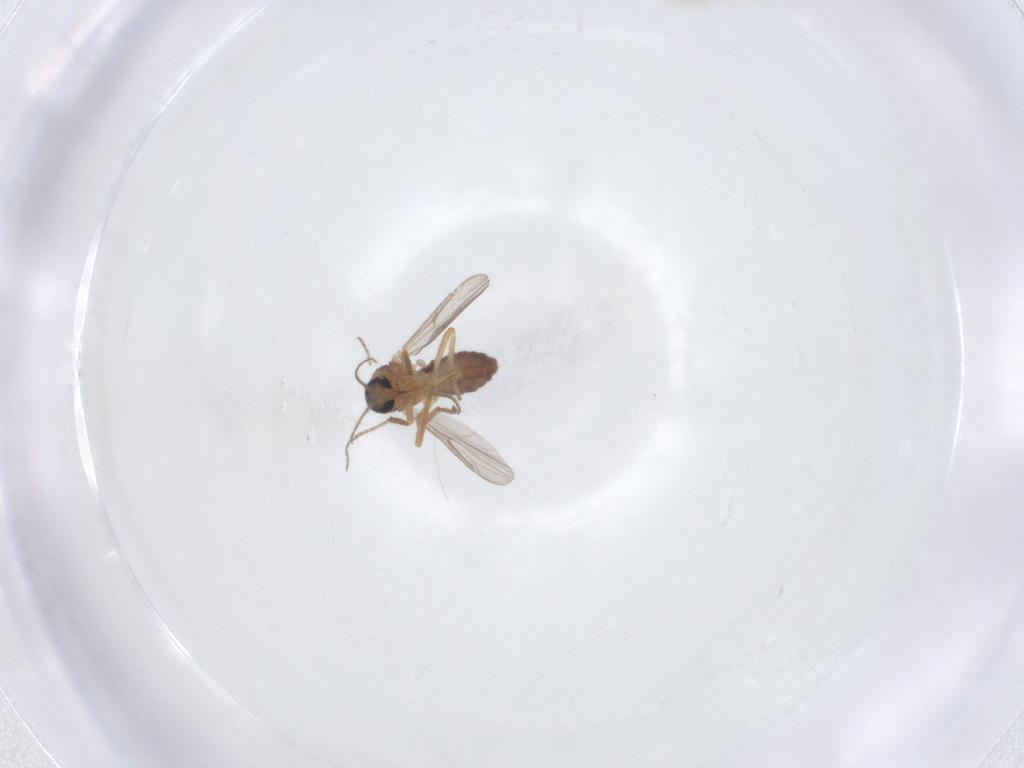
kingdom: Animalia
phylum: Arthropoda
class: Insecta
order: Diptera
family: Ceratopogonidae
